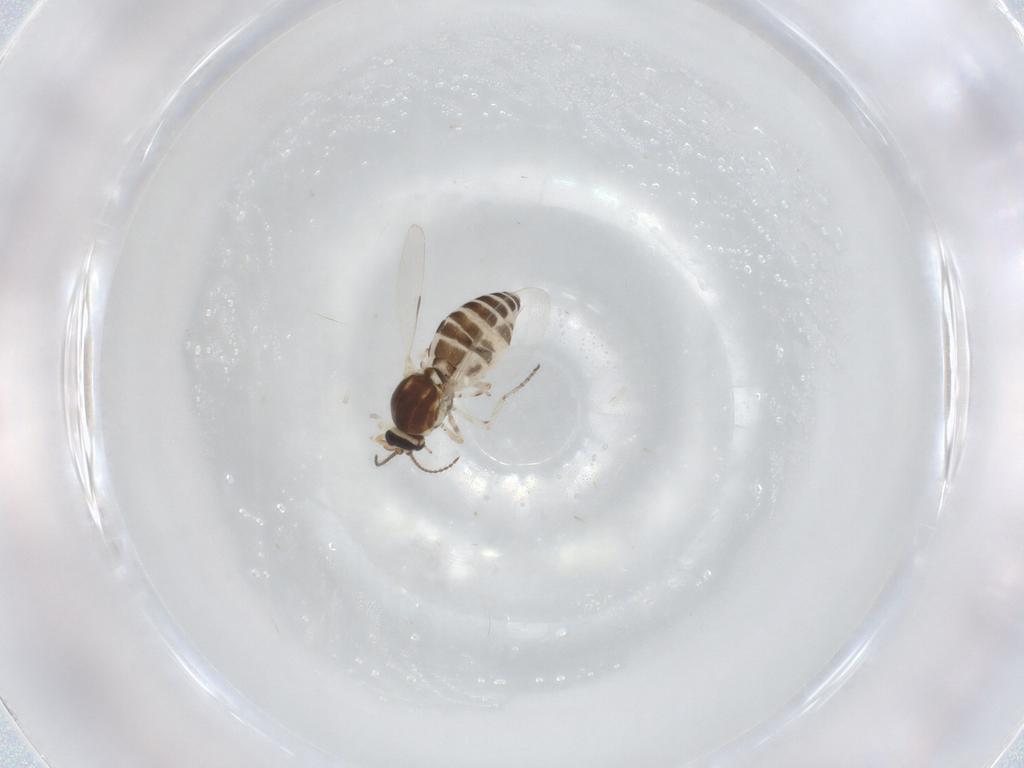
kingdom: Animalia
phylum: Arthropoda
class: Insecta
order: Diptera
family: Ceratopogonidae
